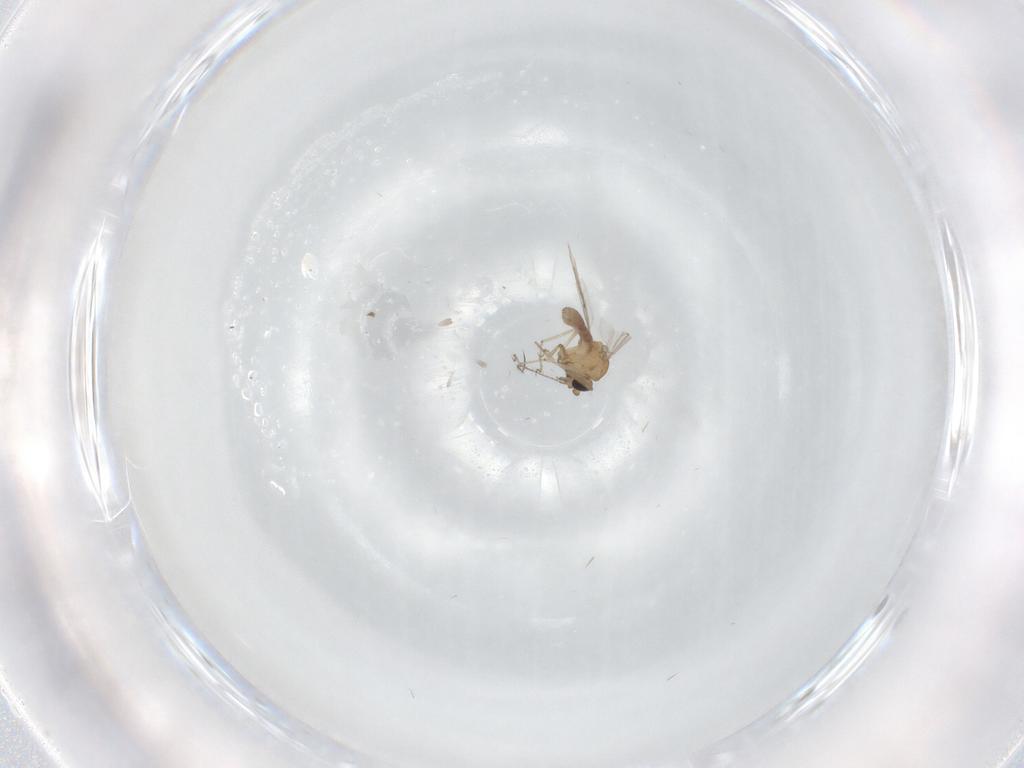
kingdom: Animalia
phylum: Arthropoda
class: Insecta
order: Diptera
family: Ceratopogonidae
